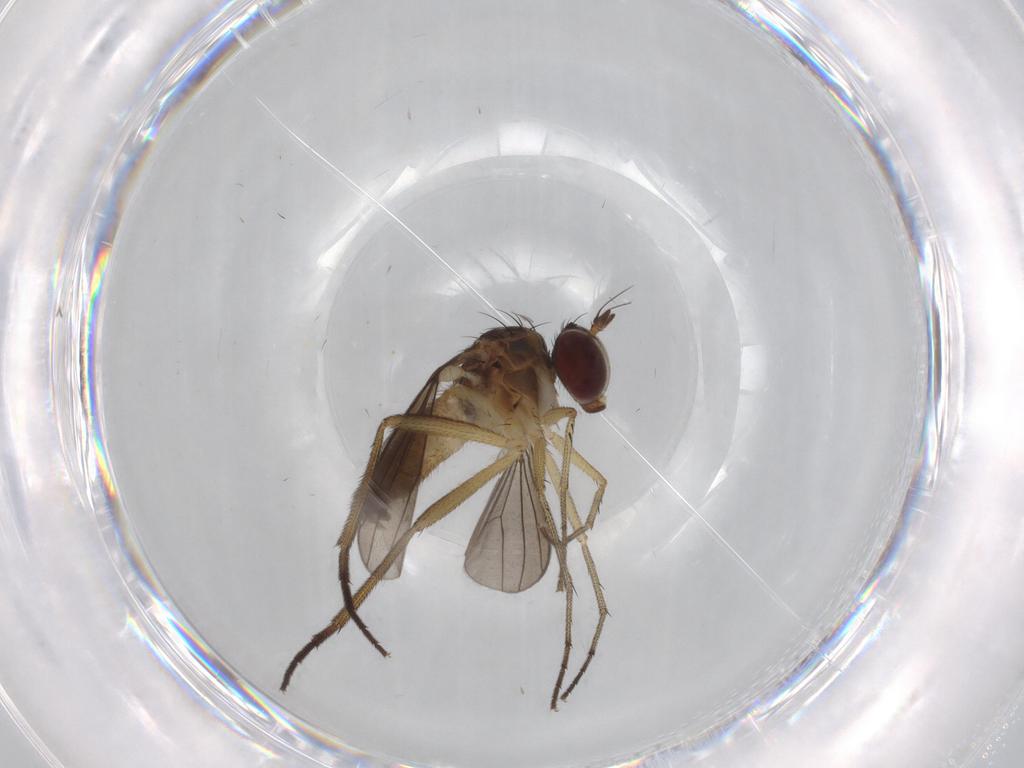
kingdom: Animalia
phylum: Arthropoda
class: Insecta
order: Diptera
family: Dolichopodidae
